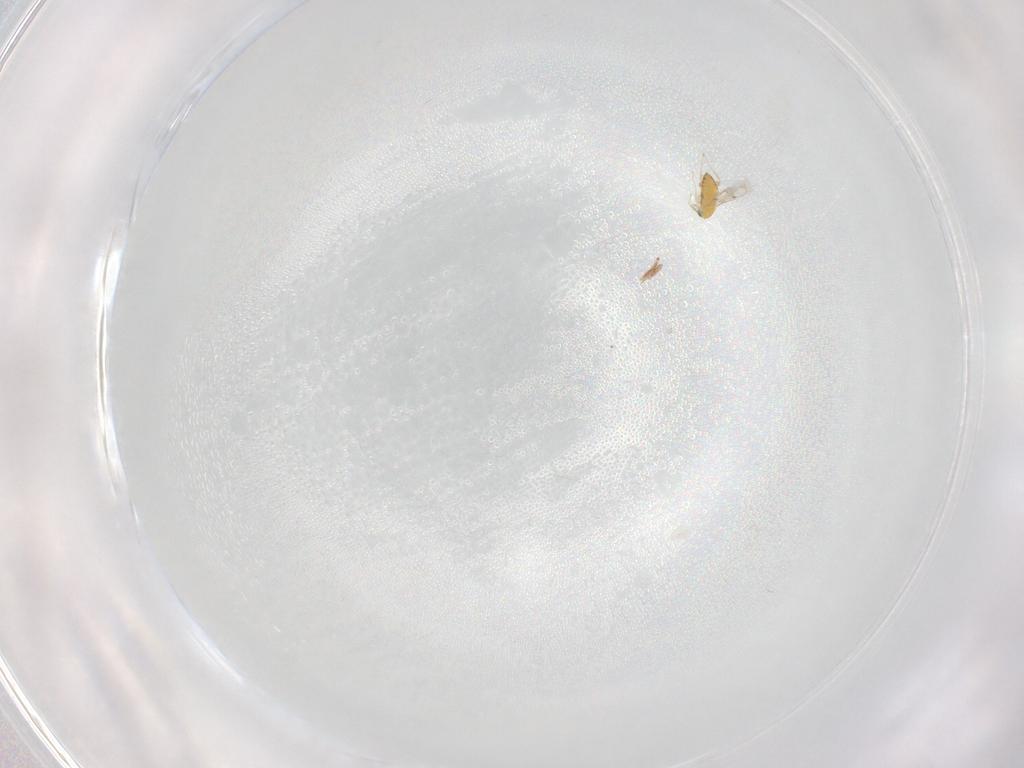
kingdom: Animalia
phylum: Arthropoda
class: Insecta
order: Hymenoptera
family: Trichogrammatidae
